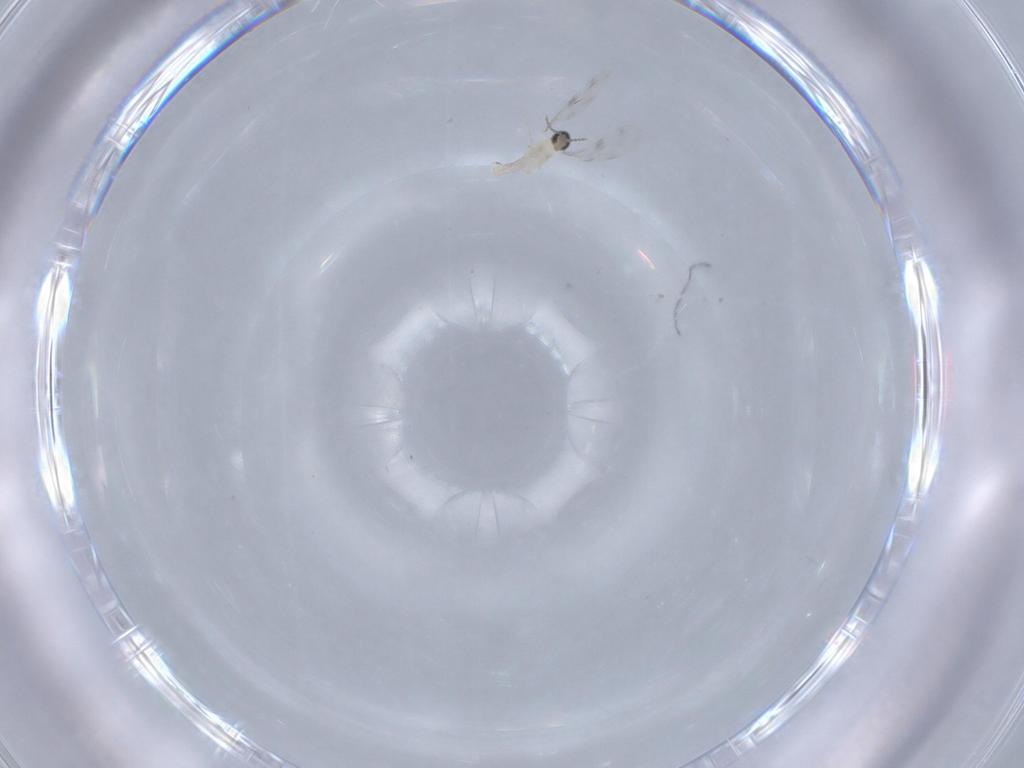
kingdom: Animalia
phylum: Arthropoda
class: Insecta
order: Diptera
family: Cecidomyiidae
